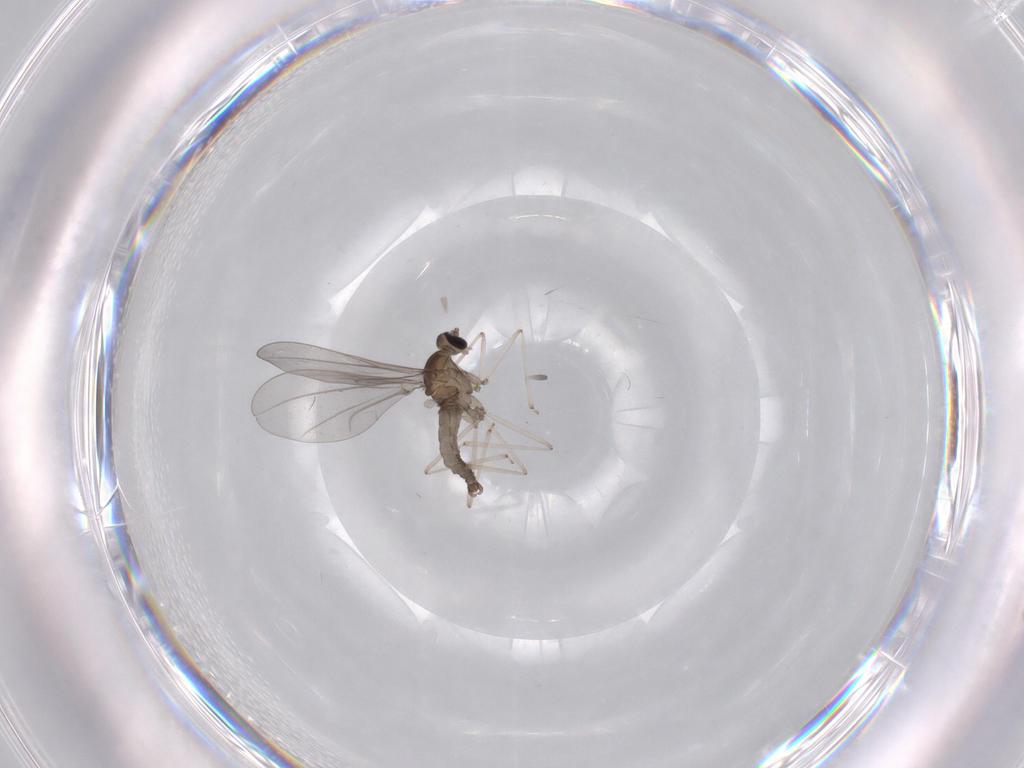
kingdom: Animalia
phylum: Arthropoda
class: Insecta
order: Diptera
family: Cecidomyiidae
